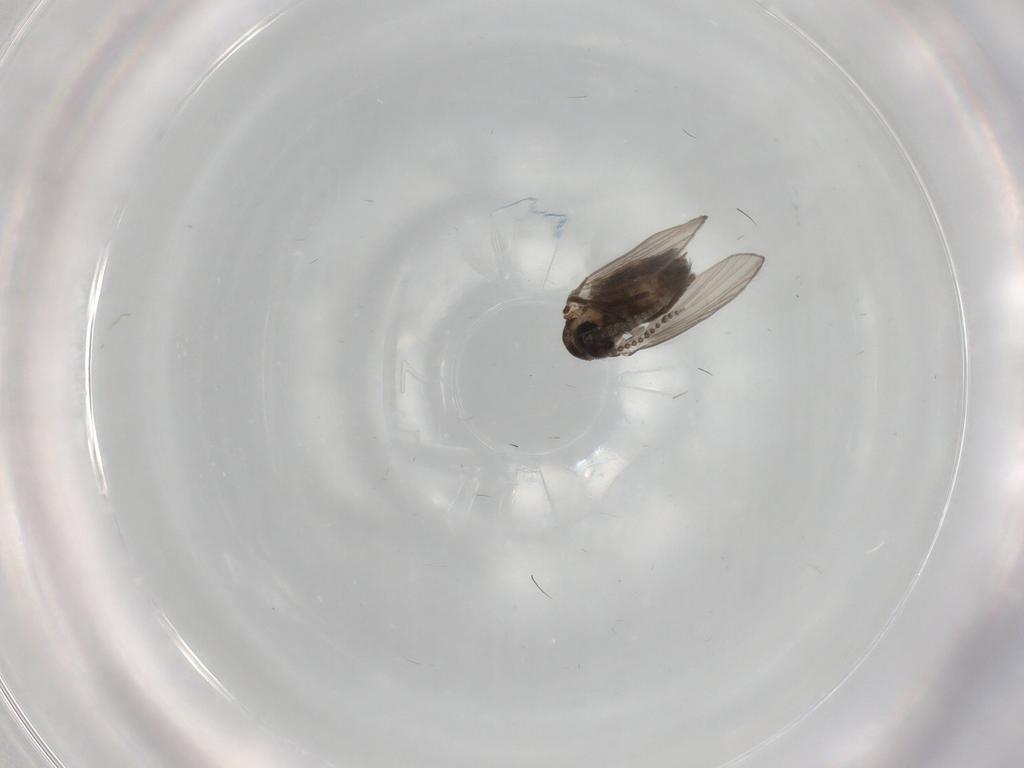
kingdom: Animalia
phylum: Arthropoda
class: Insecta
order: Diptera
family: Psychodidae
